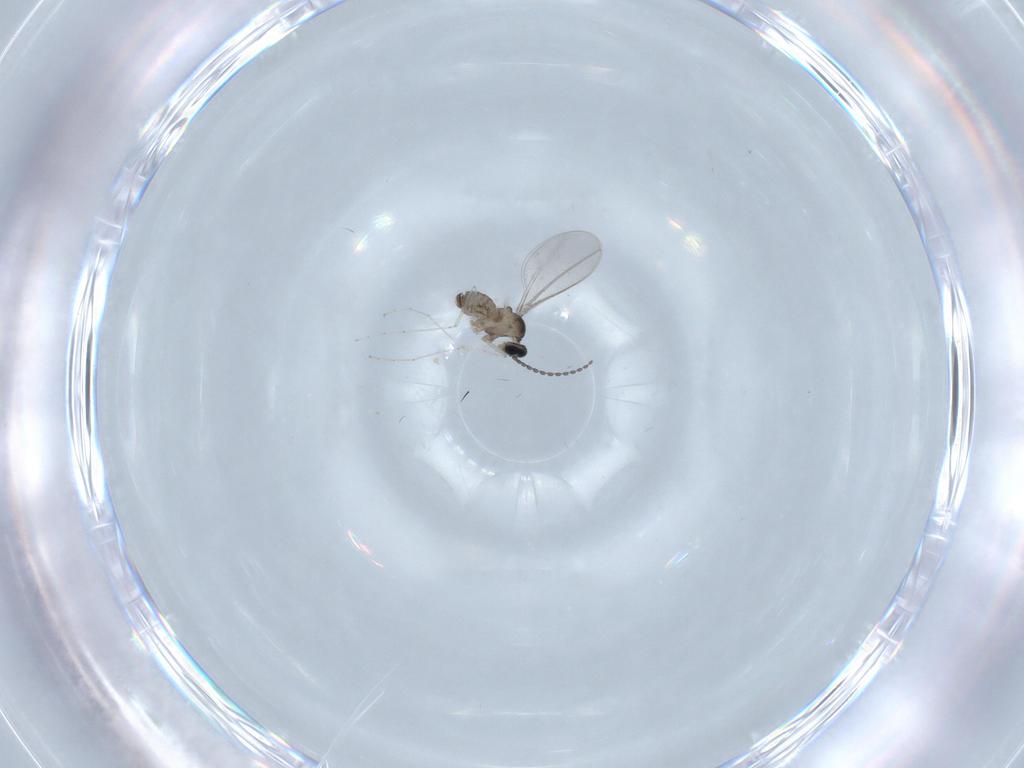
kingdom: Animalia
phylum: Arthropoda
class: Insecta
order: Diptera
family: Cecidomyiidae
